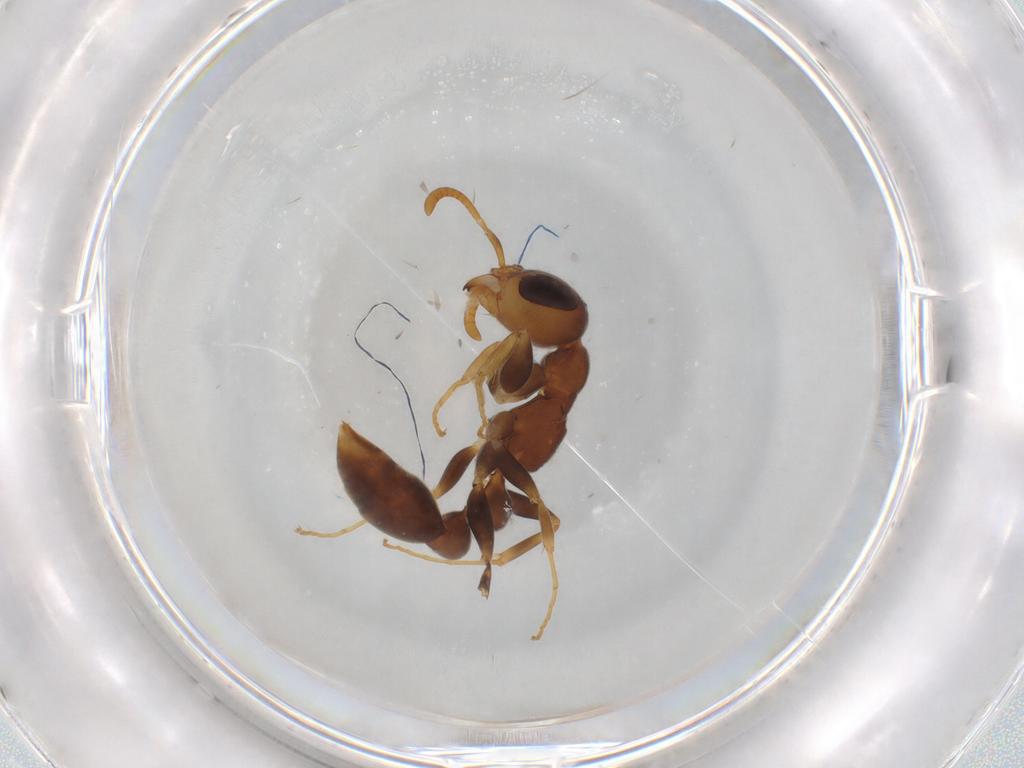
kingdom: Animalia
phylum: Arthropoda
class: Insecta
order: Hymenoptera
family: Formicidae
